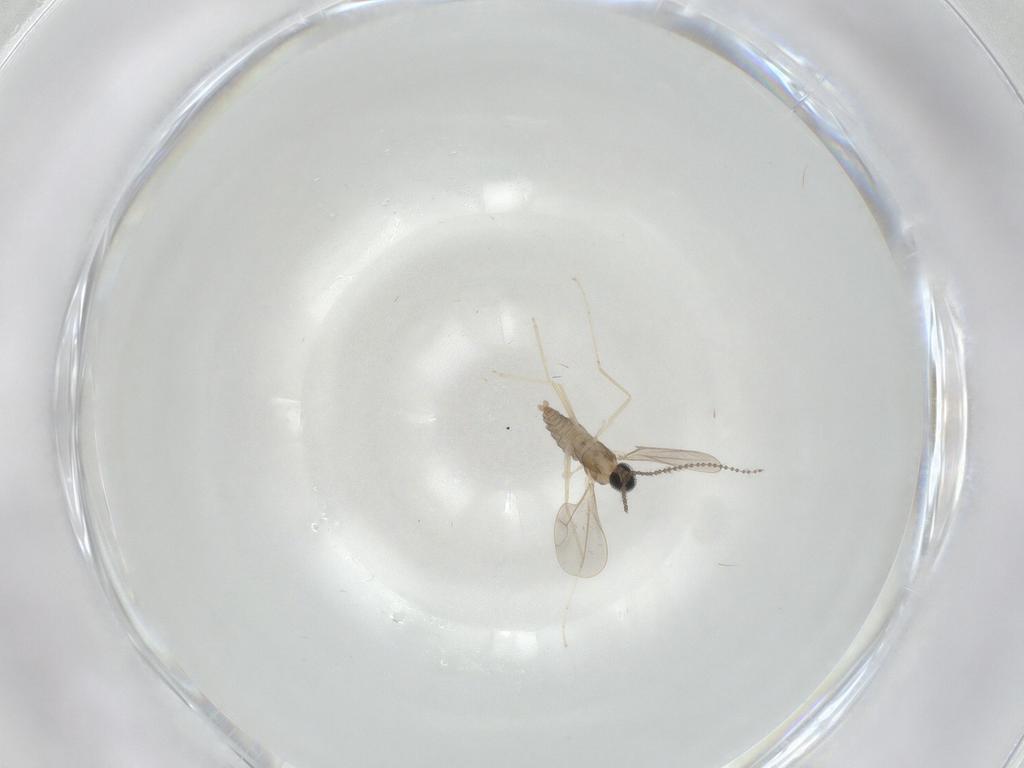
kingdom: Animalia
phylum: Arthropoda
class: Insecta
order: Diptera
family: Cecidomyiidae
